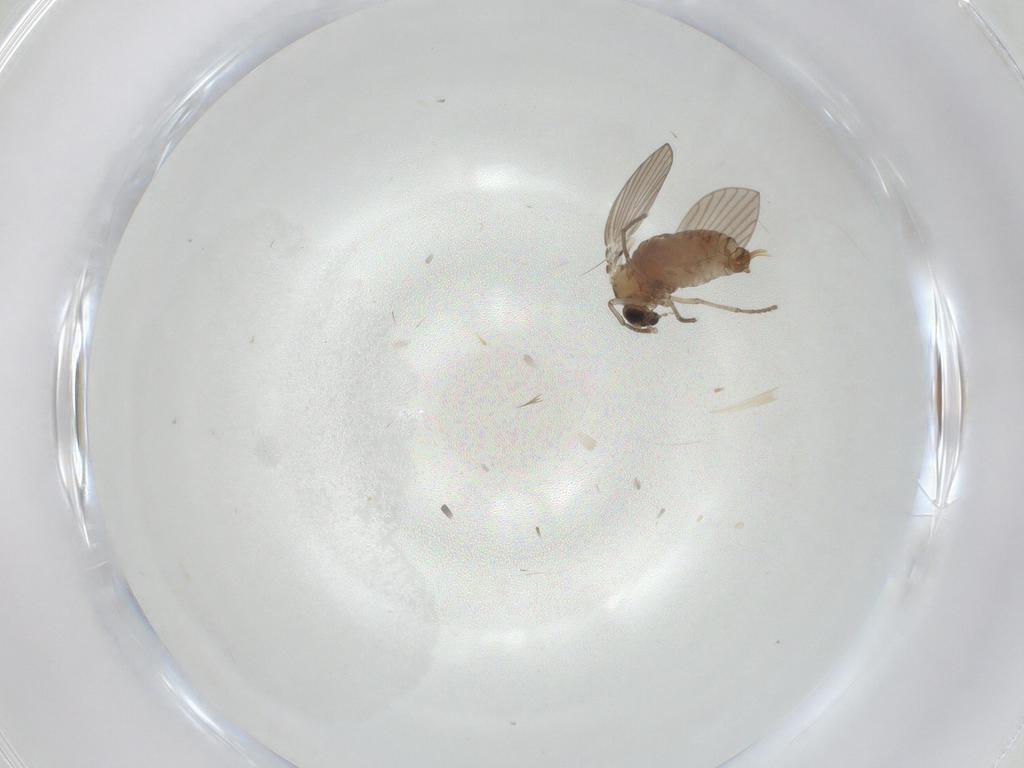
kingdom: Animalia
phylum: Arthropoda
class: Insecta
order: Diptera
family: Psychodidae
